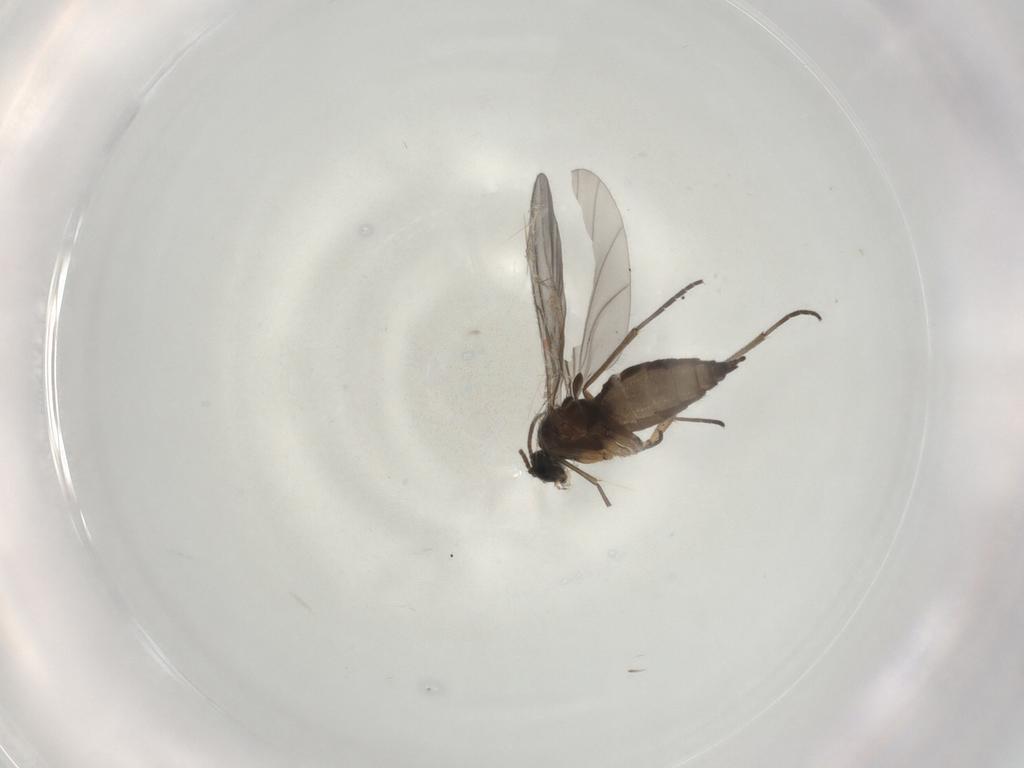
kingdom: Animalia
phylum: Arthropoda
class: Insecta
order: Diptera
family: Sciaridae
